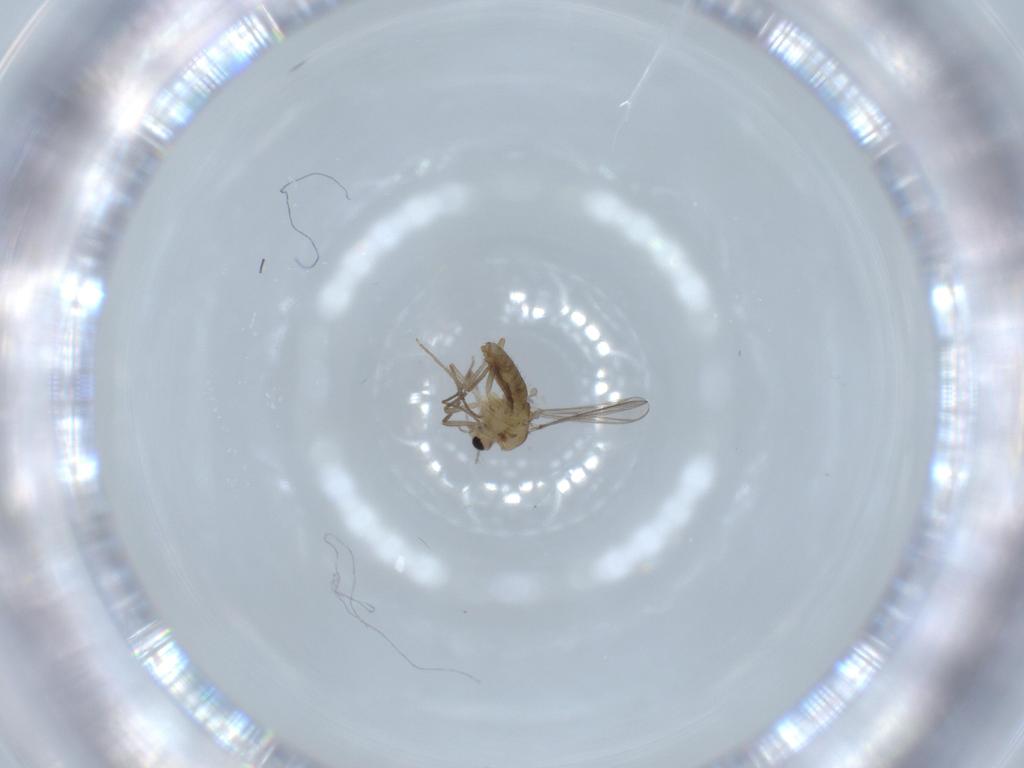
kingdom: Animalia
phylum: Arthropoda
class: Insecta
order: Diptera
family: Chironomidae
